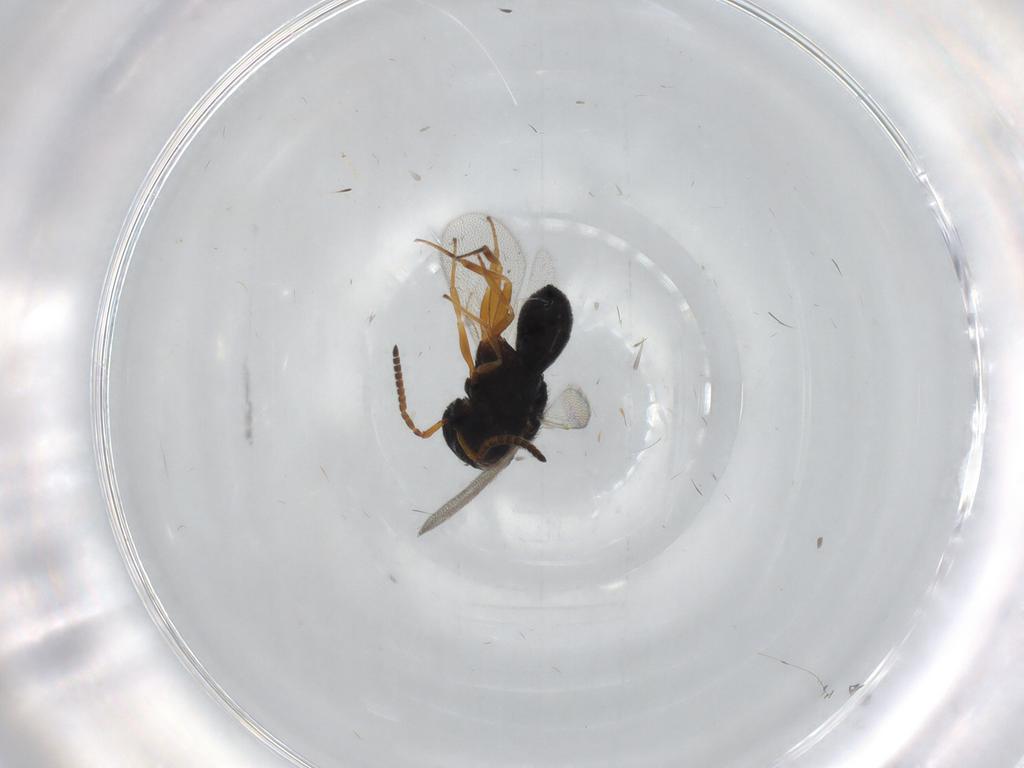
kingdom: Animalia
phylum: Arthropoda
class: Insecta
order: Hymenoptera
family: Scelionidae
